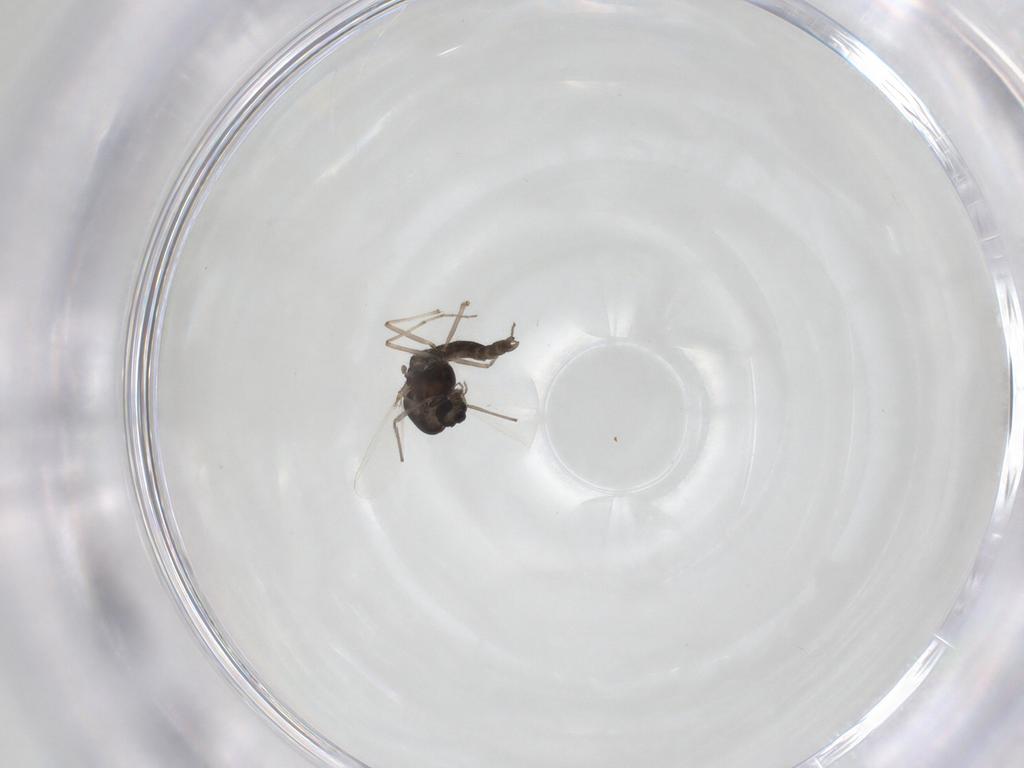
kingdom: Animalia
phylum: Arthropoda
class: Insecta
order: Diptera
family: Chironomidae
